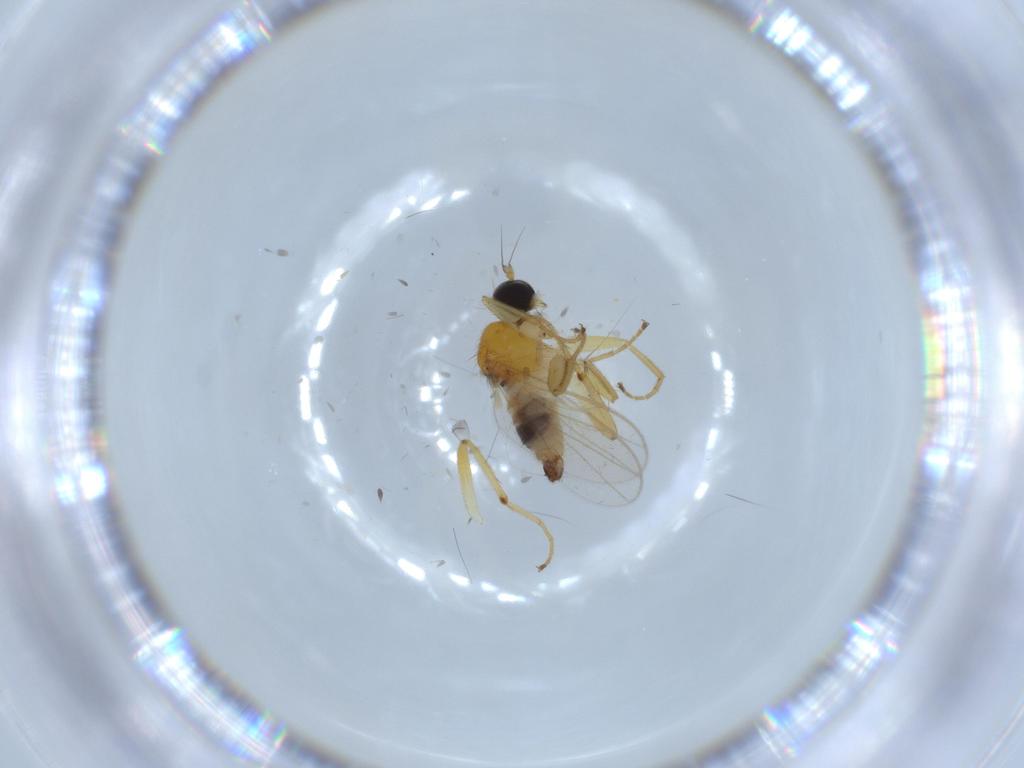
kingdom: Animalia
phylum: Arthropoda
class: Insecta
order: Diptera
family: Hybotidae
